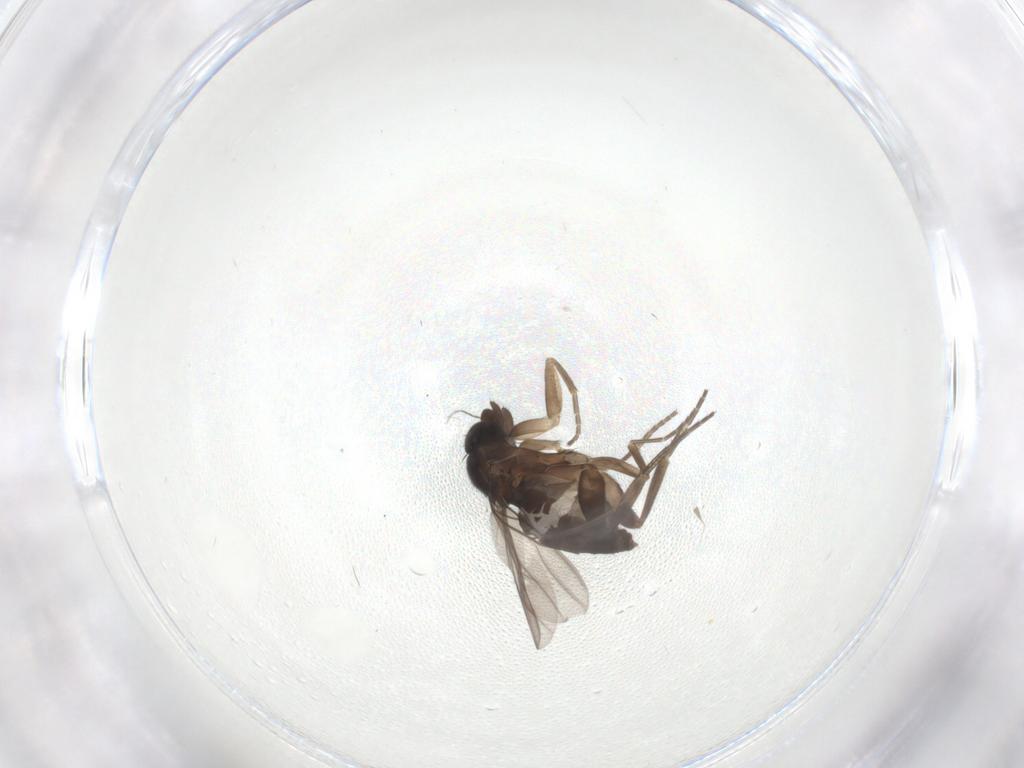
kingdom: Animalia
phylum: Arthropoda
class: Insecta
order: Diptera
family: Phoridae
